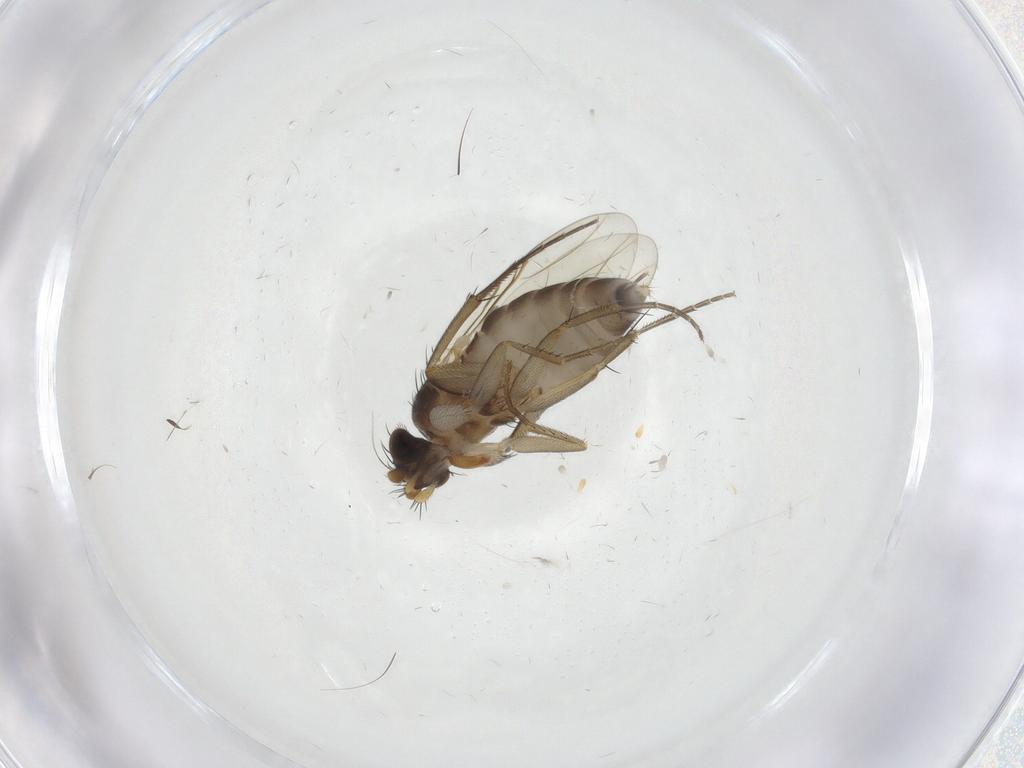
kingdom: Animalia
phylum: Arthropoda
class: Insecta
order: Diptera
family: Phoridae
